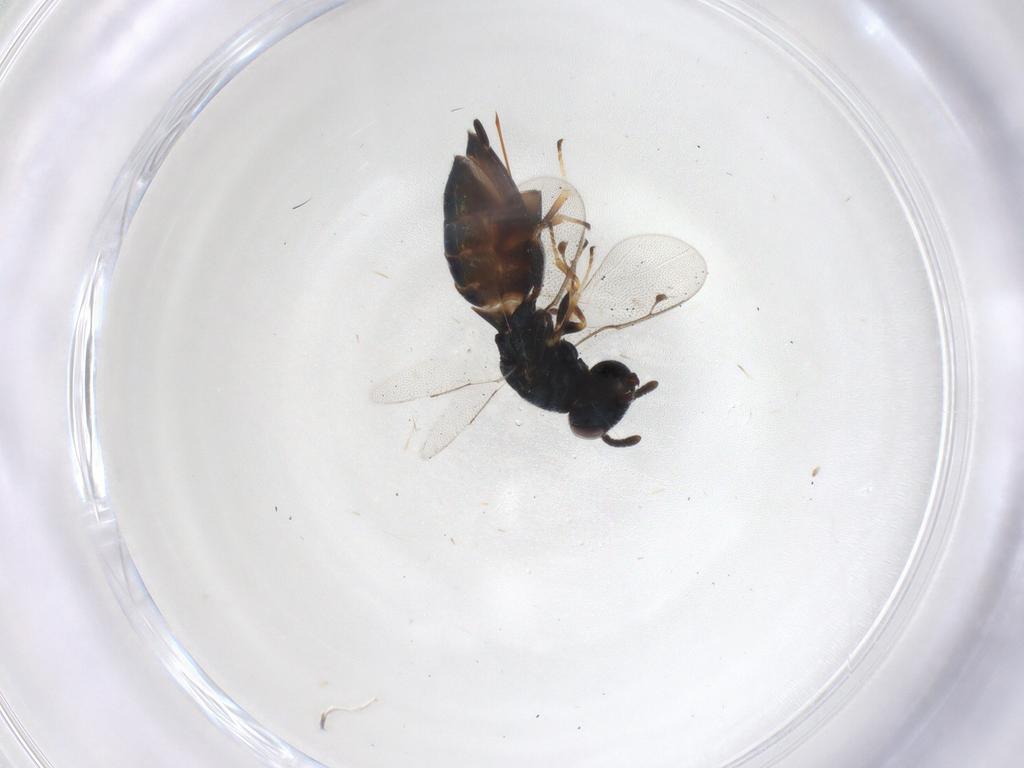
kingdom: Animalia
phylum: Arthropoda
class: Insecta
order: Hymenoptera
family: Pteromalidae
